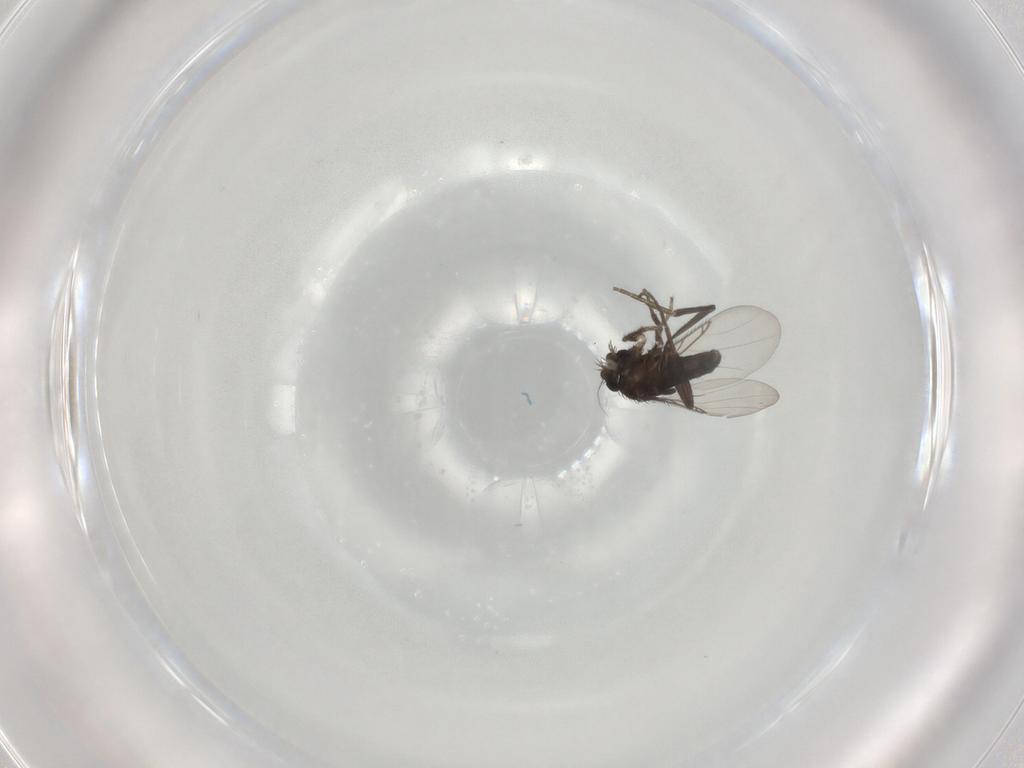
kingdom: Animalia
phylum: Arthropoda
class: Insecta
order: Diptera
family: Phoridae
